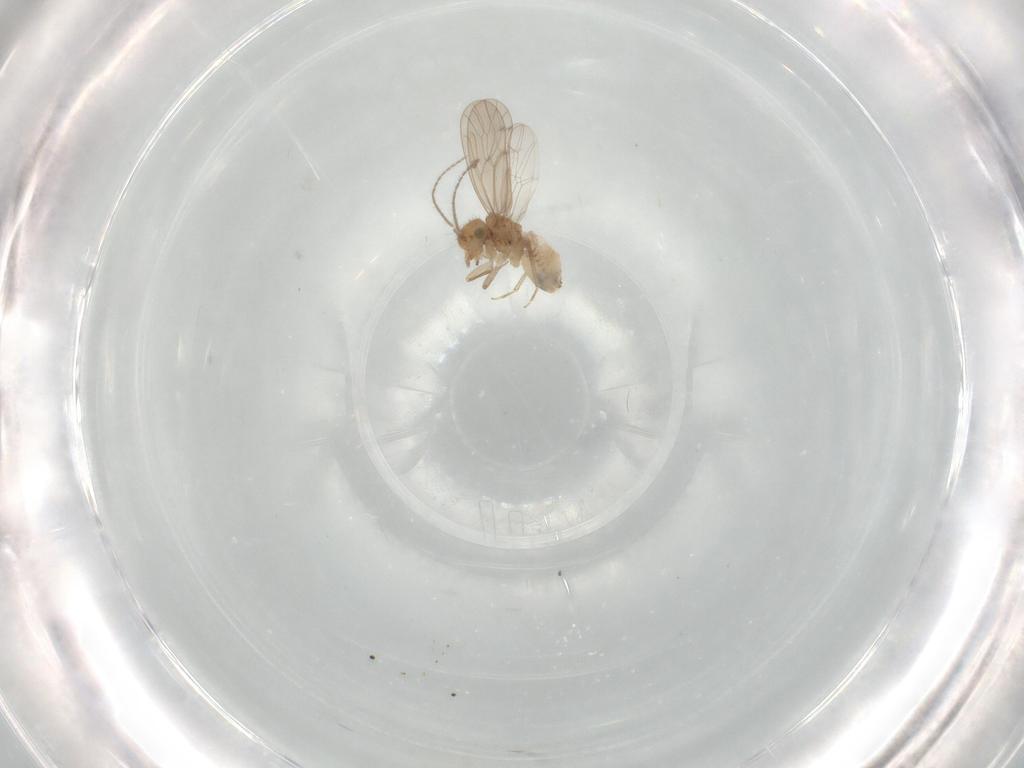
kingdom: Animalia
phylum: Arthropoda
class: Insecta
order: Psocodea
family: Ectopsocidae
